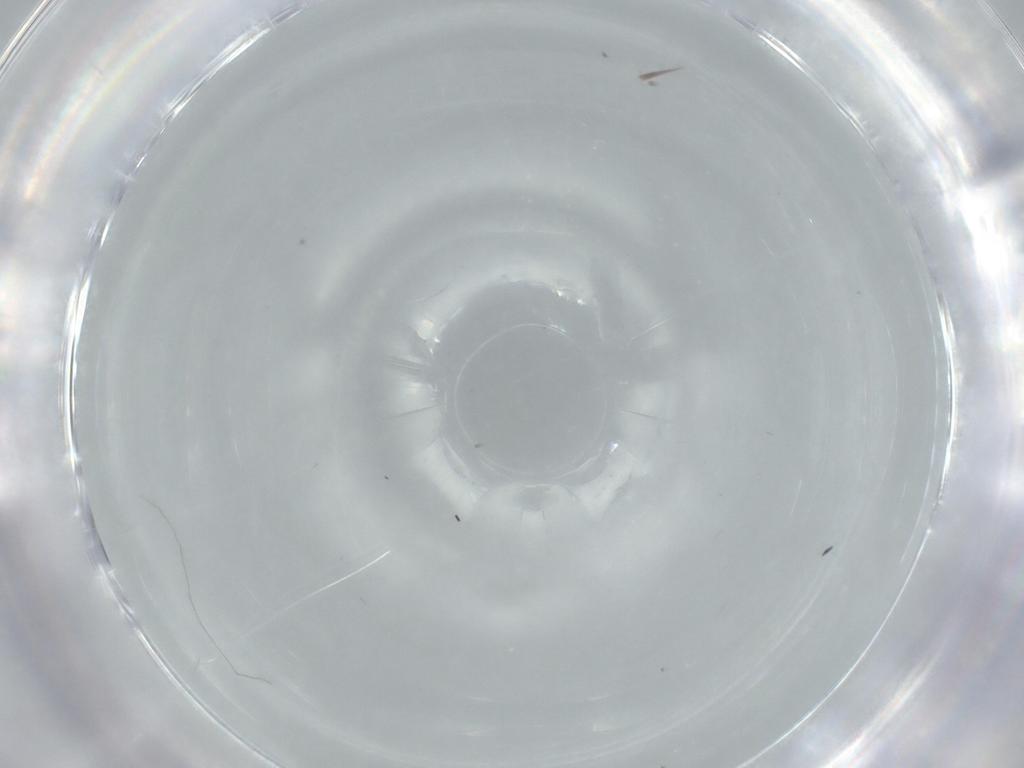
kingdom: Animalia
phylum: Arthropoda
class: Insecta
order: Diptera
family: Ceratopogonidae
